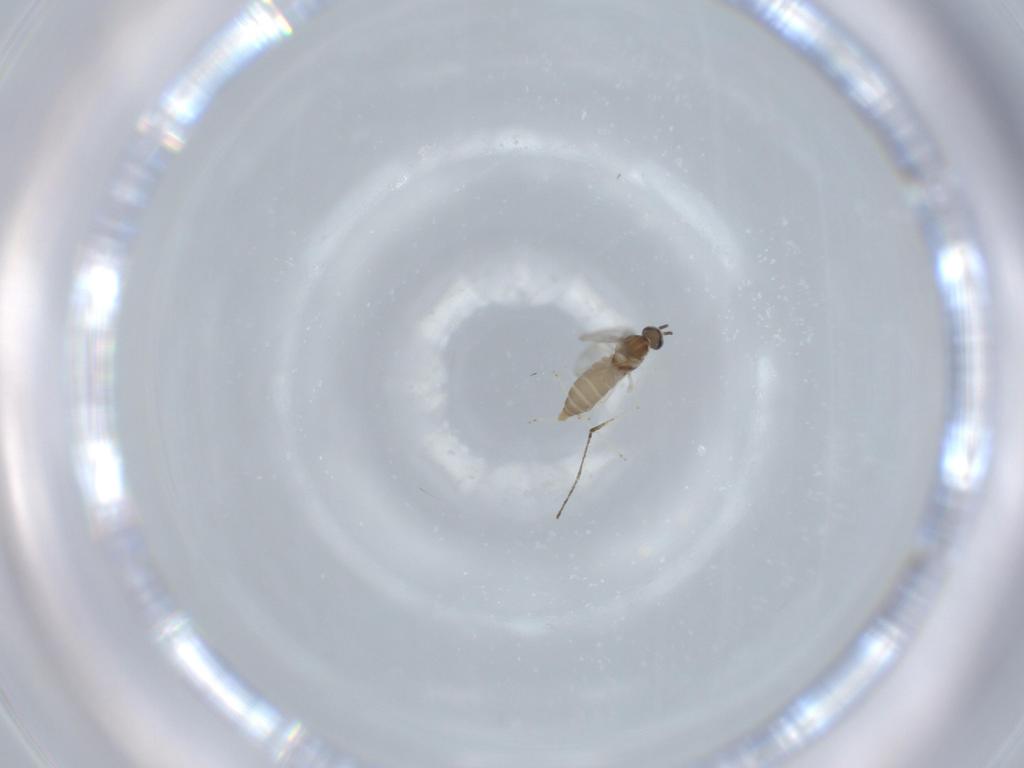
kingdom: Animalia
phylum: Arthropoda
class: Insecta
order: Diptera
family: Cecidomyiidae
